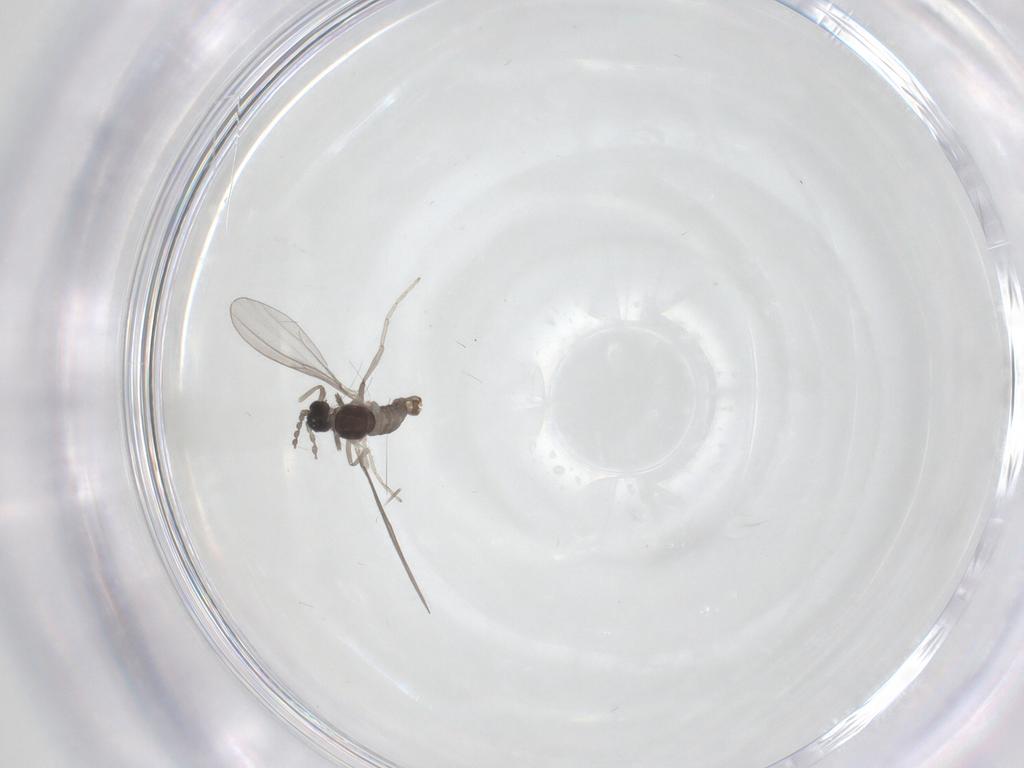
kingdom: Animalia
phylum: Arthropoda
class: Insecta
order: Diptera
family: Cecidomyiidae
